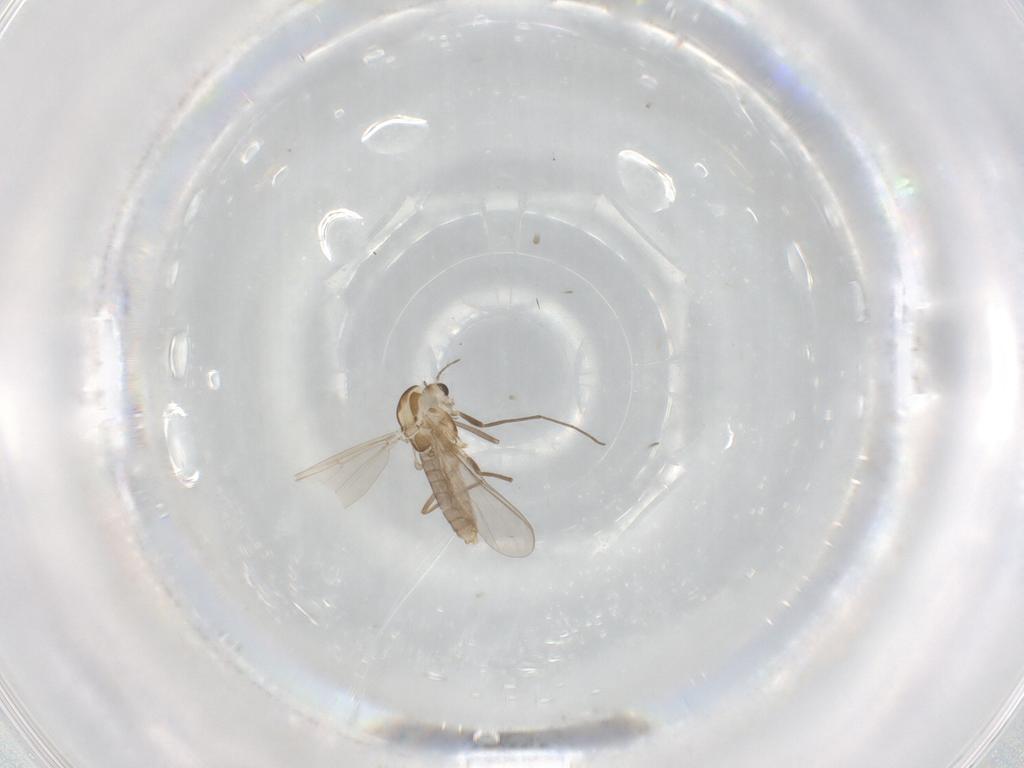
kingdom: Animalia
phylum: Arthropoda
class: Insecta
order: Diptera
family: Chironomidae
